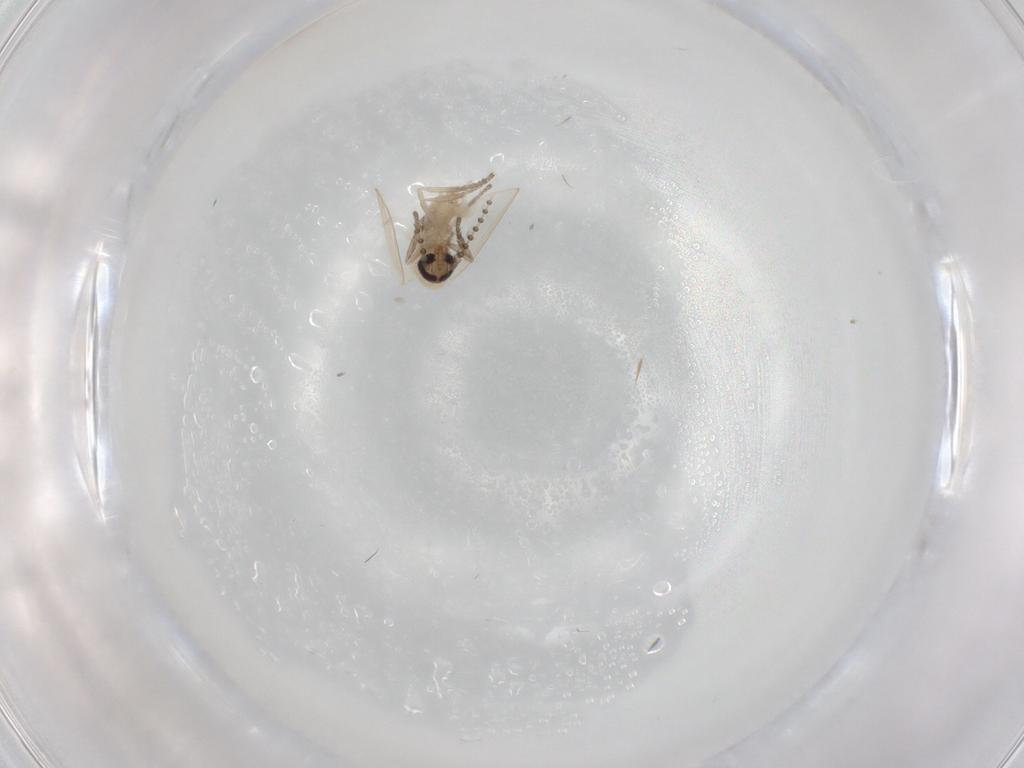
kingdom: Animalia
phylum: Arthropoda
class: Insecta
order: Diptera
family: Psychodidae
